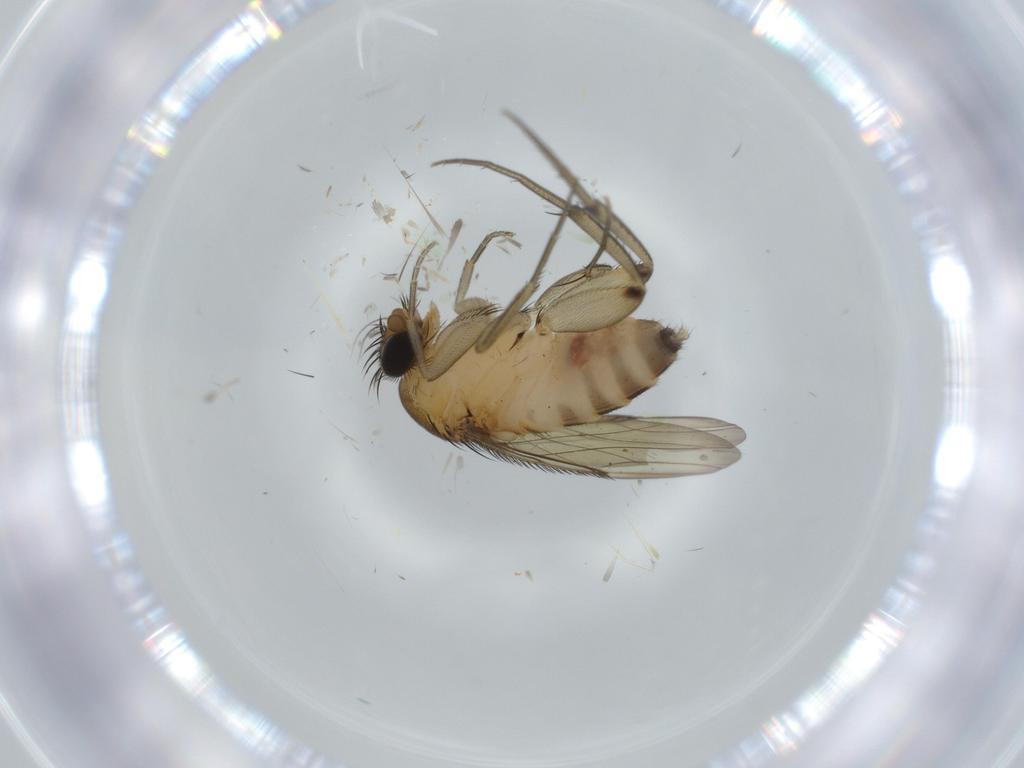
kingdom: Animalia
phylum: Arthropoda
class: Insecta
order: Diptera
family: Phoridae
